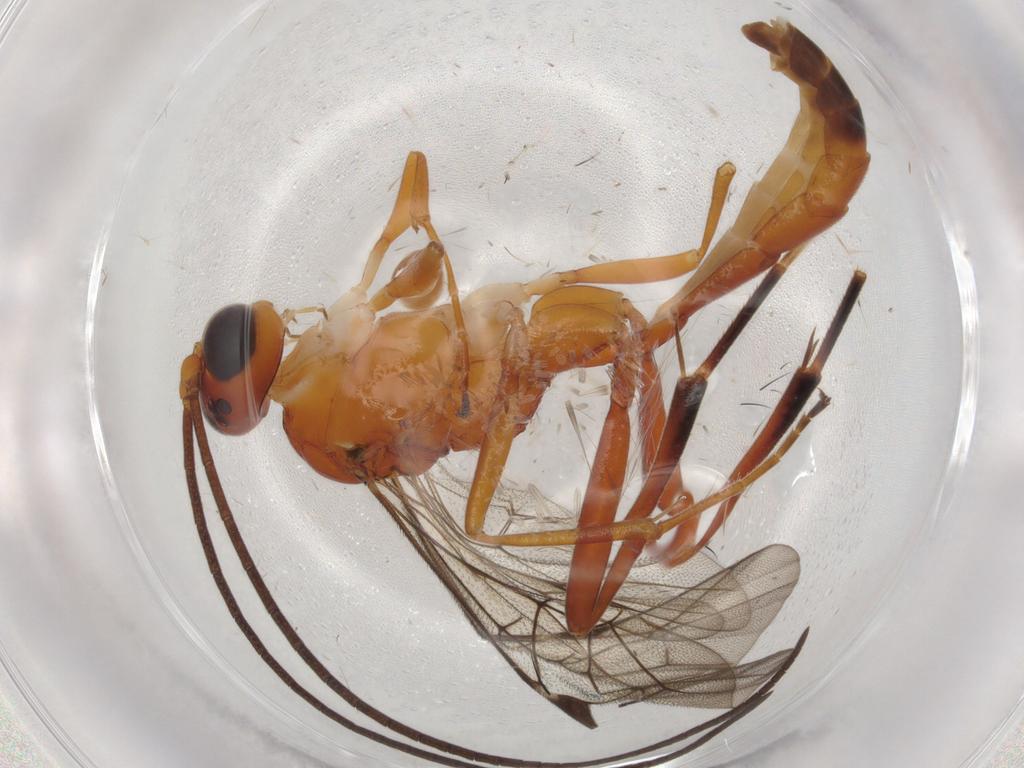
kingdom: Animalia
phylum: Arthropoda
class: Insecta
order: Hymenoptera
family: Ichneumonidae
